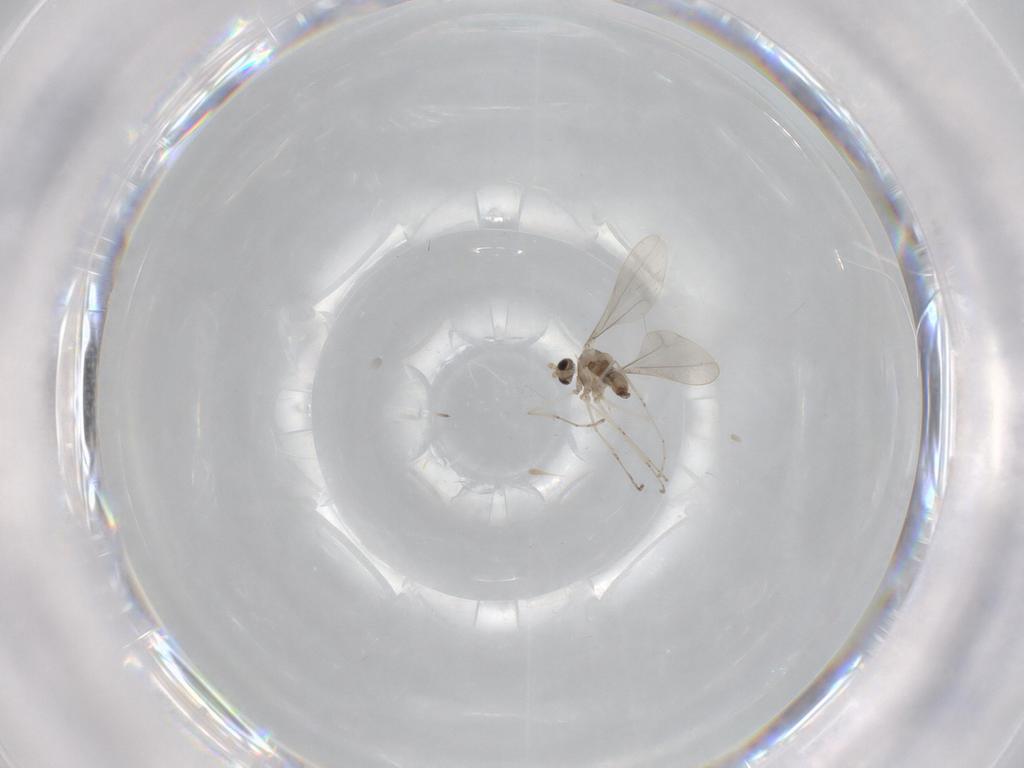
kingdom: Animalia
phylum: Arthropoda
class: Insecta
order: Diptera
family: Cecidomyiidae
